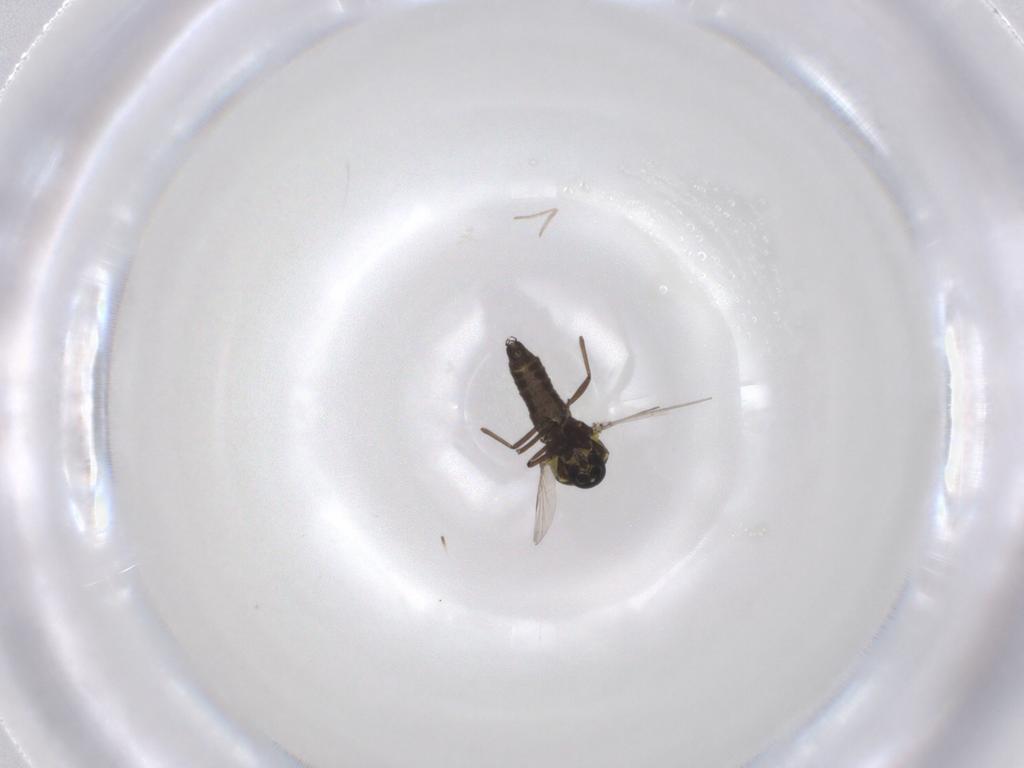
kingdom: Animalia
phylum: Arthropoda
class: Insecta
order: Diptera
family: Ceratopogonidae
